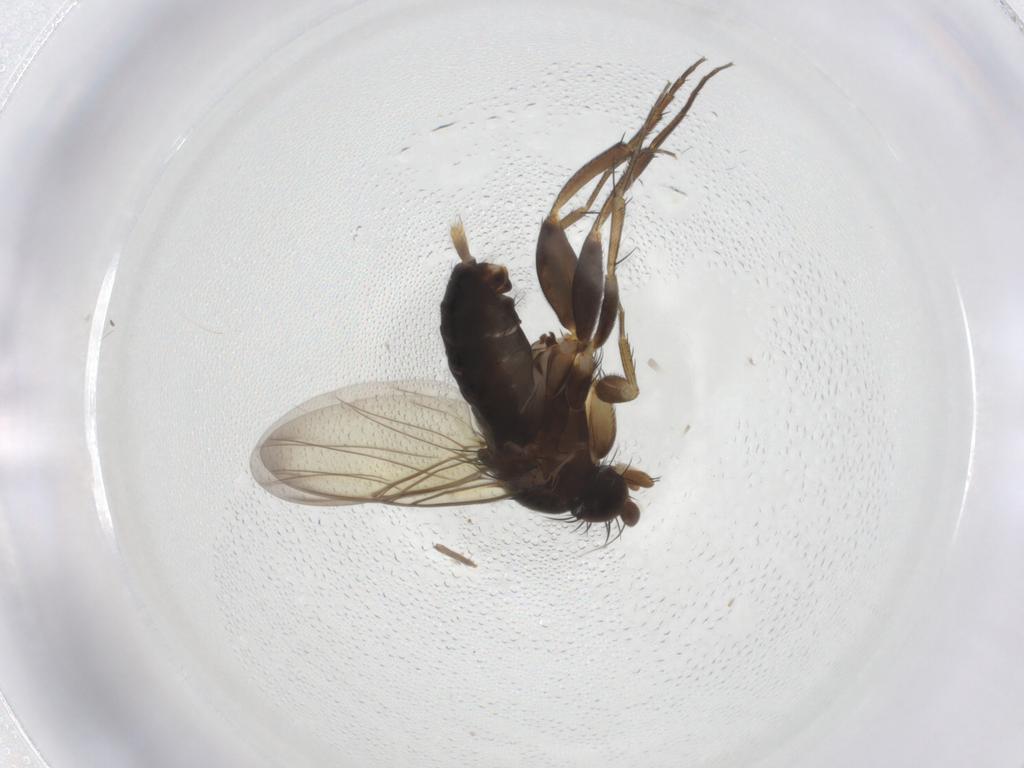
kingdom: Animalia
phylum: Arthropoda
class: Insecta
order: Diptera
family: Phoridae
